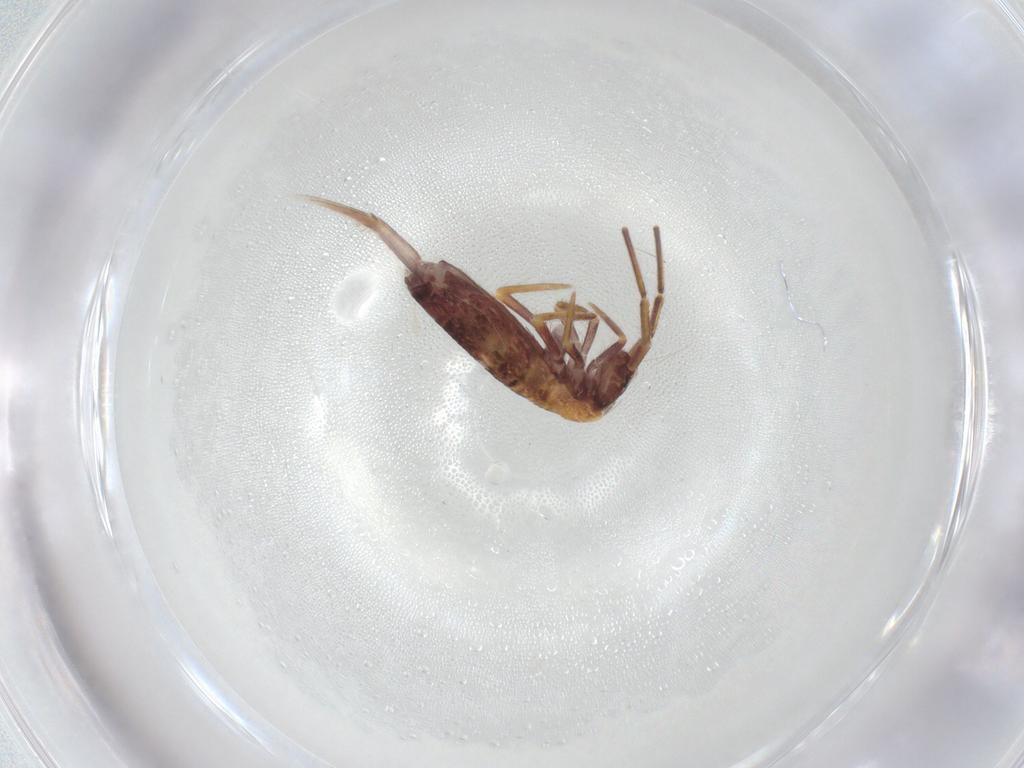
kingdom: Animalia
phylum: Arthropoda
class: Collembola
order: Entomobryomorpha
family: Entomobryidae
